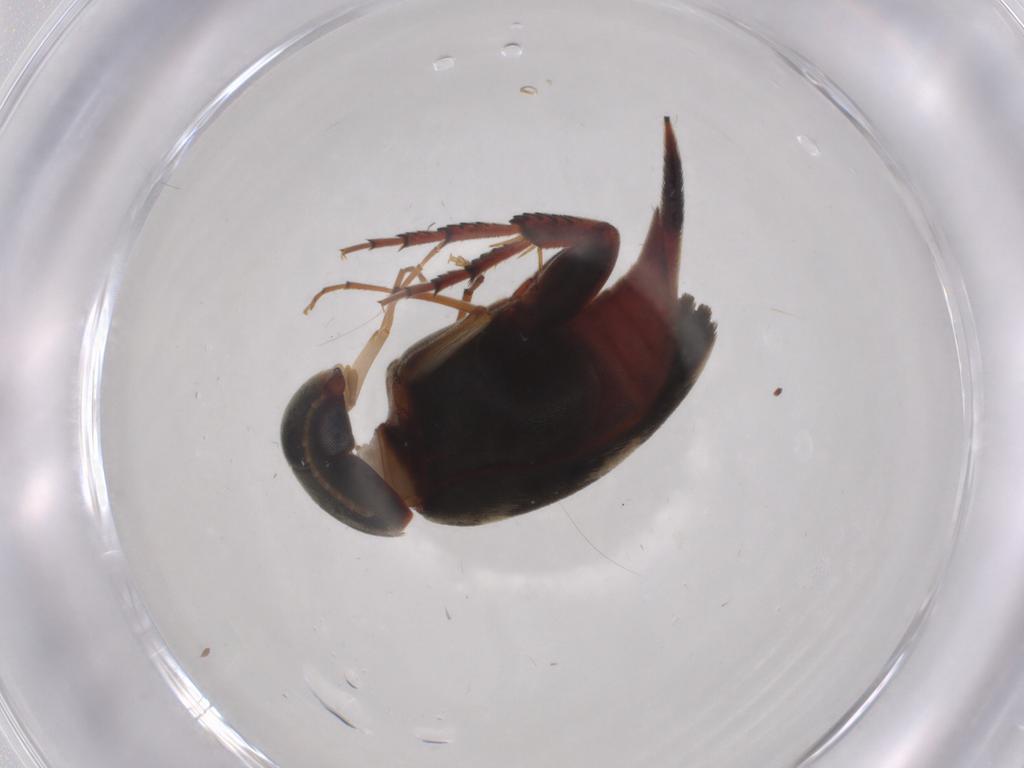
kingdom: Animalia
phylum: Arthropoda
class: Insecta
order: Coleoptera
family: Mordellidae
